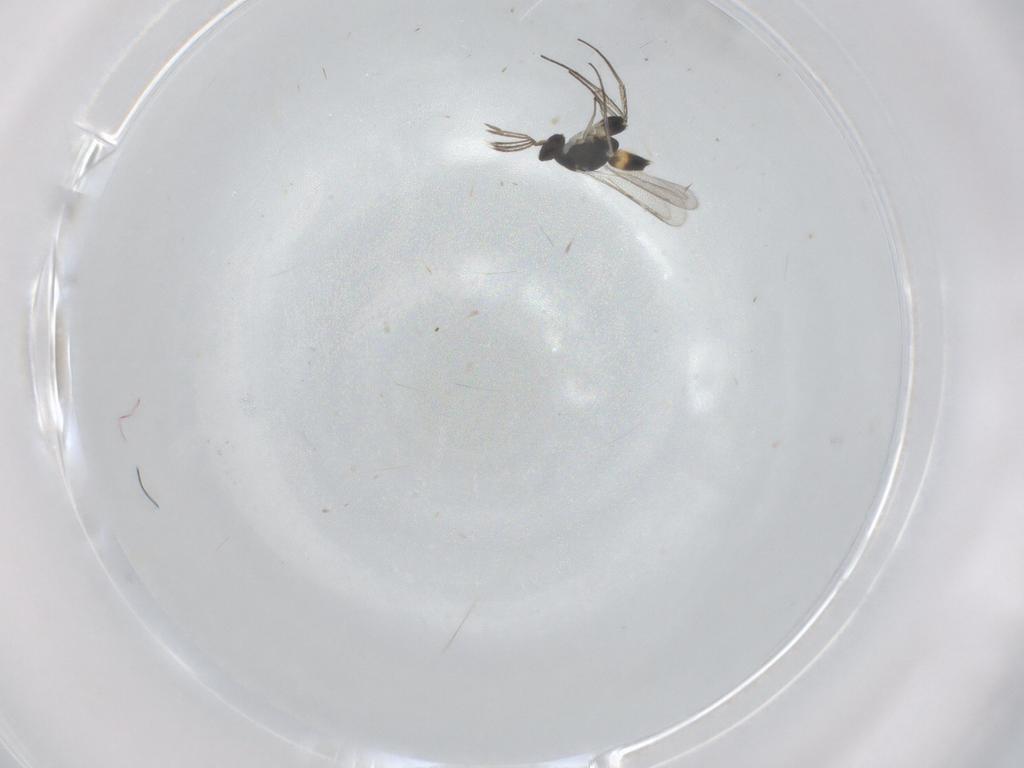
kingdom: Animalia
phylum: Arthropoda
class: Insecta
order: Hymenoptera
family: Eulophidae
